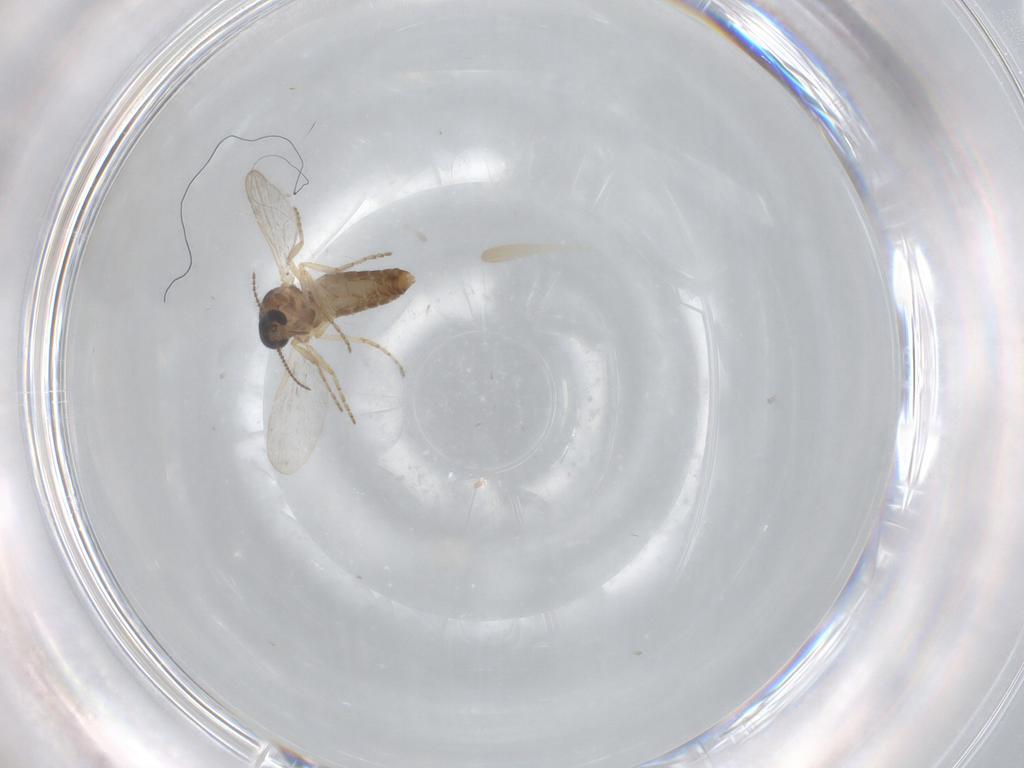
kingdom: Animalia
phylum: Arthropoda
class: Insecta
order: Diptera
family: Ceratopogonidae
